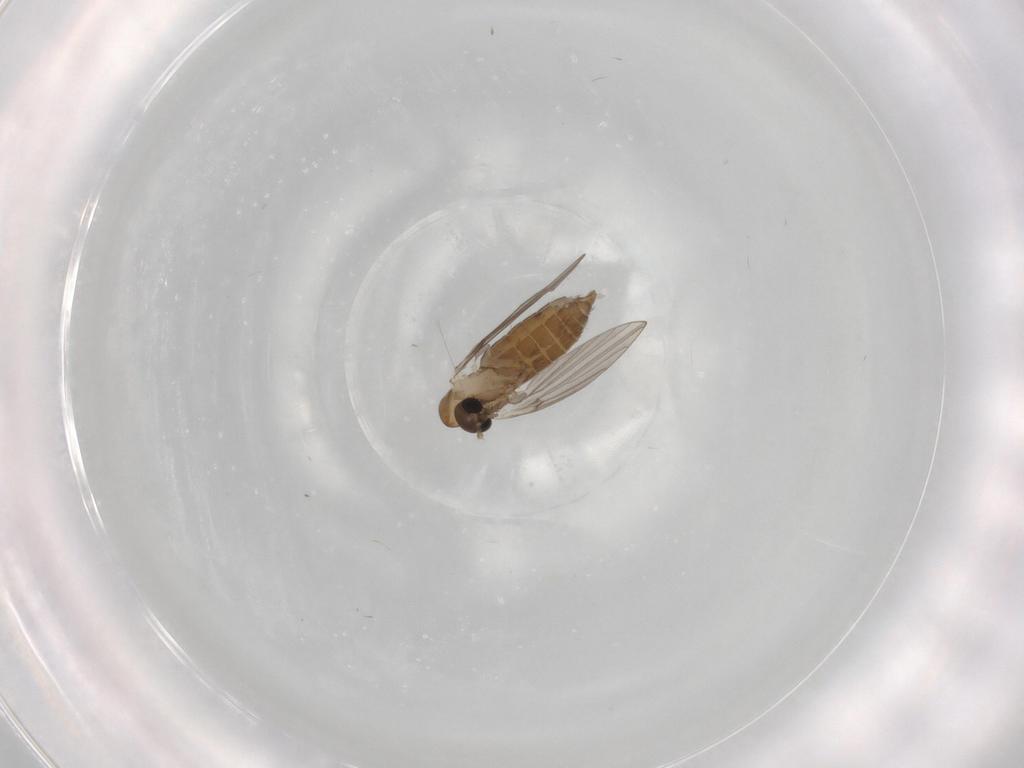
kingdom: Animalia
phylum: Arthropoda
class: Insecta
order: Diptera
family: Psychodidae
